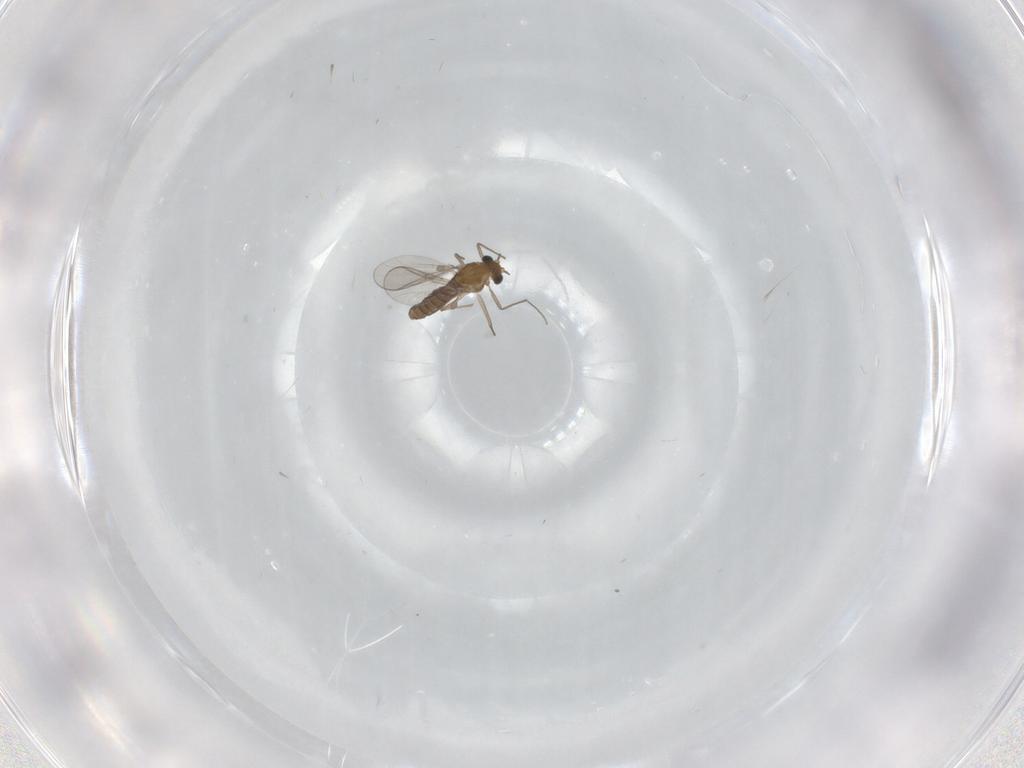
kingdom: Animalia
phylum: Arthropoda
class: Insecta
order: Diptera
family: Chironomidae
